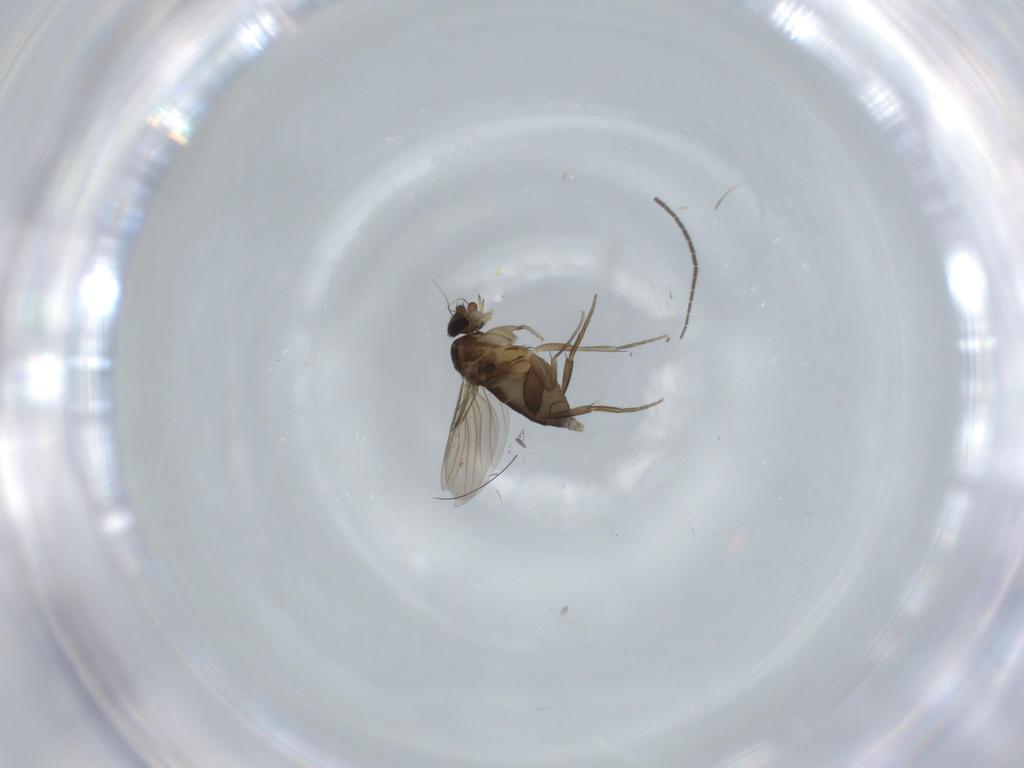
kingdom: Animalia
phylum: Arthropoda
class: Insecta
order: Diptera
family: Phoridae
